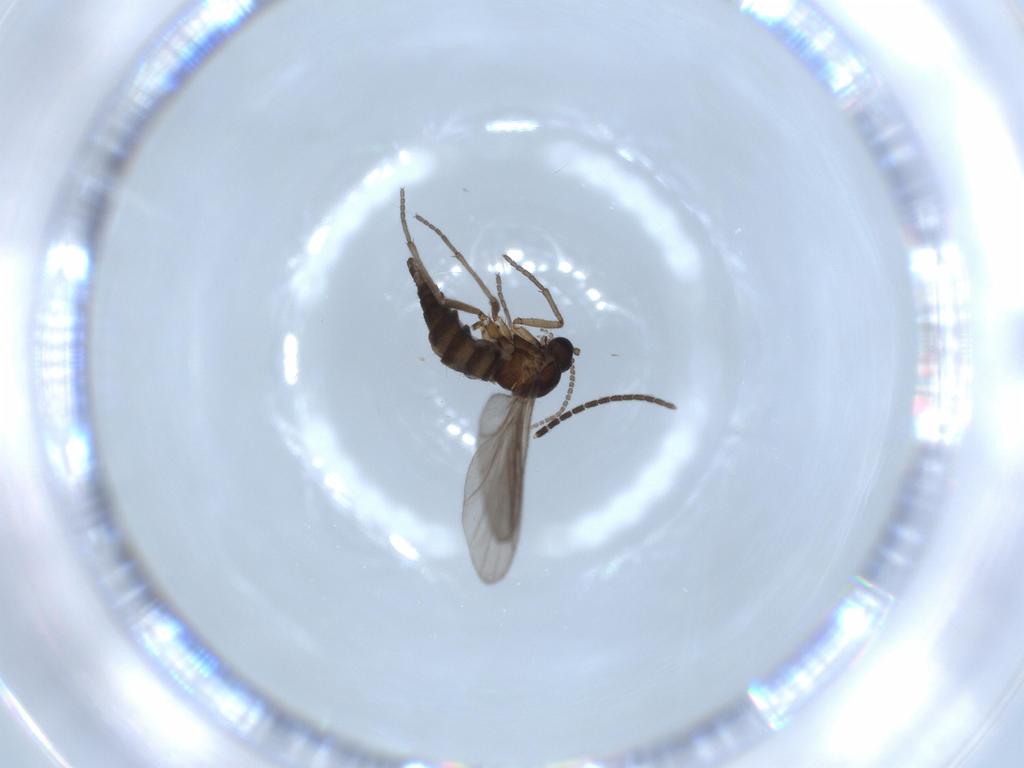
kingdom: Animalia
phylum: Arthropoda
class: Insecta
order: Diptera
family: Sciaridae
